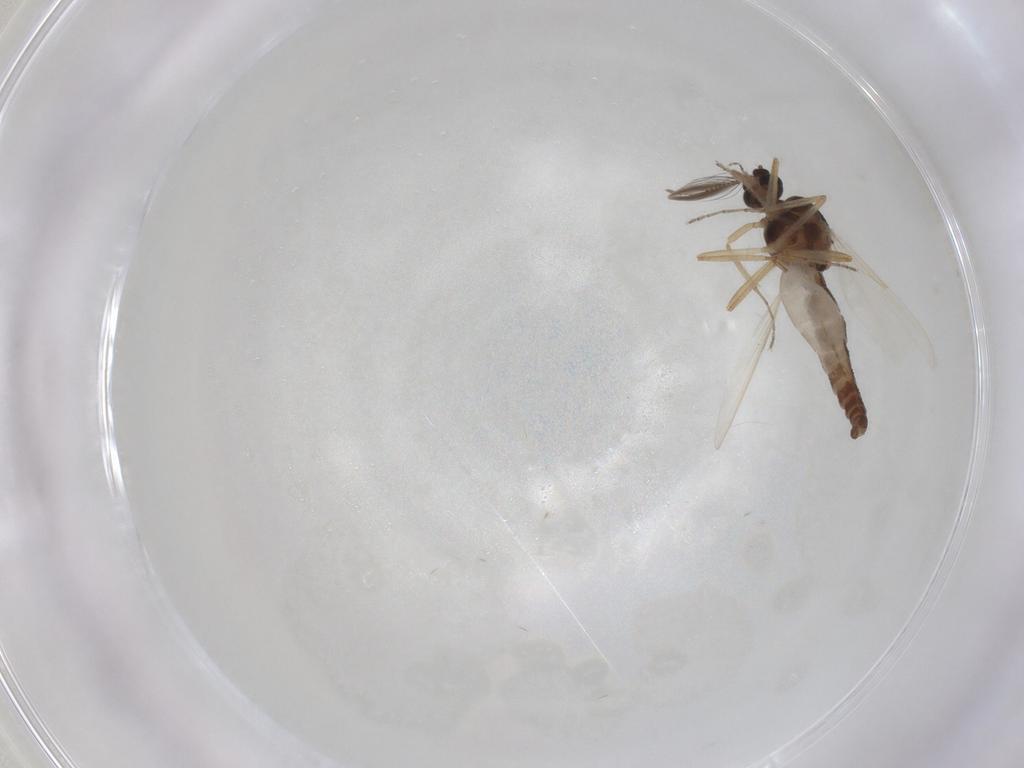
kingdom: Animalia
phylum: Arthropoda
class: Insecta
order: Diptera
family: Ceratopogonidae
